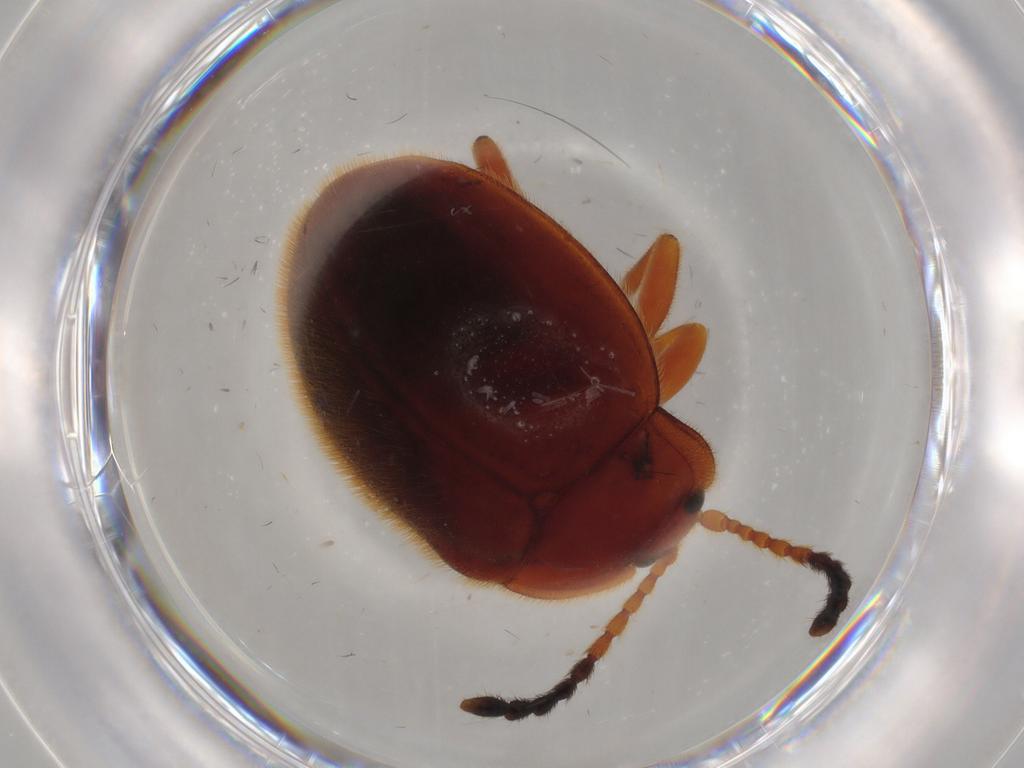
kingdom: Animalia
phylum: Arthropoda
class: Insecta
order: Coleoptera
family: Endomychidae
